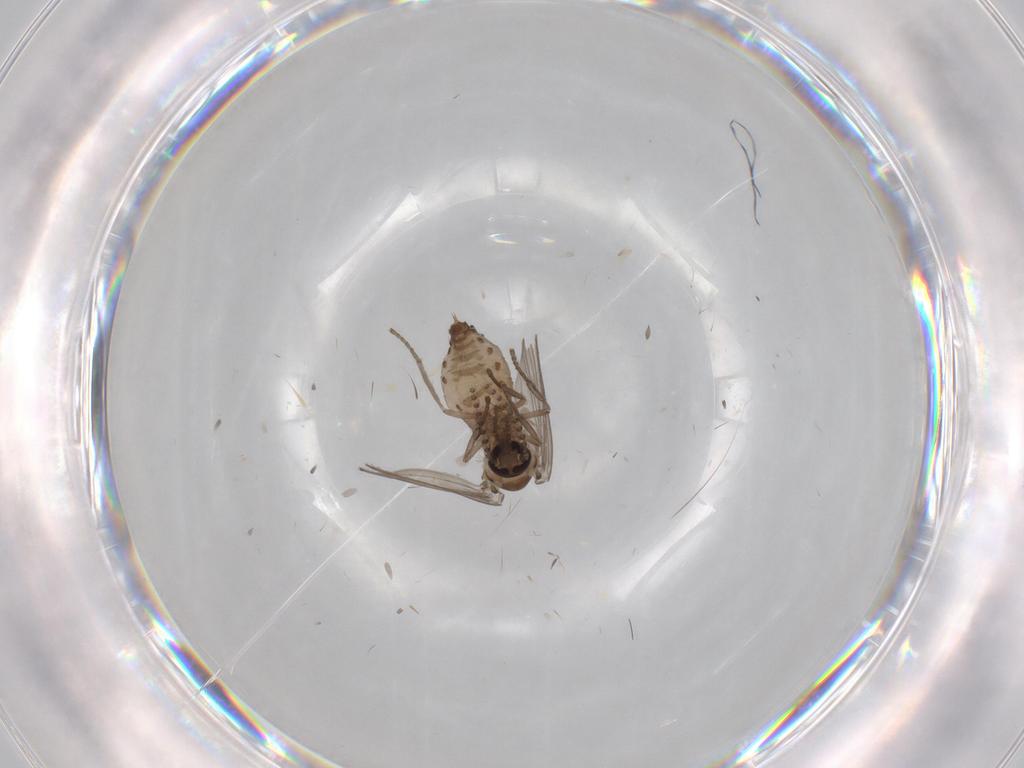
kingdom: Animalia
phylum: Arthropoda
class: Insecta
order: Diptera
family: Psychodidae
